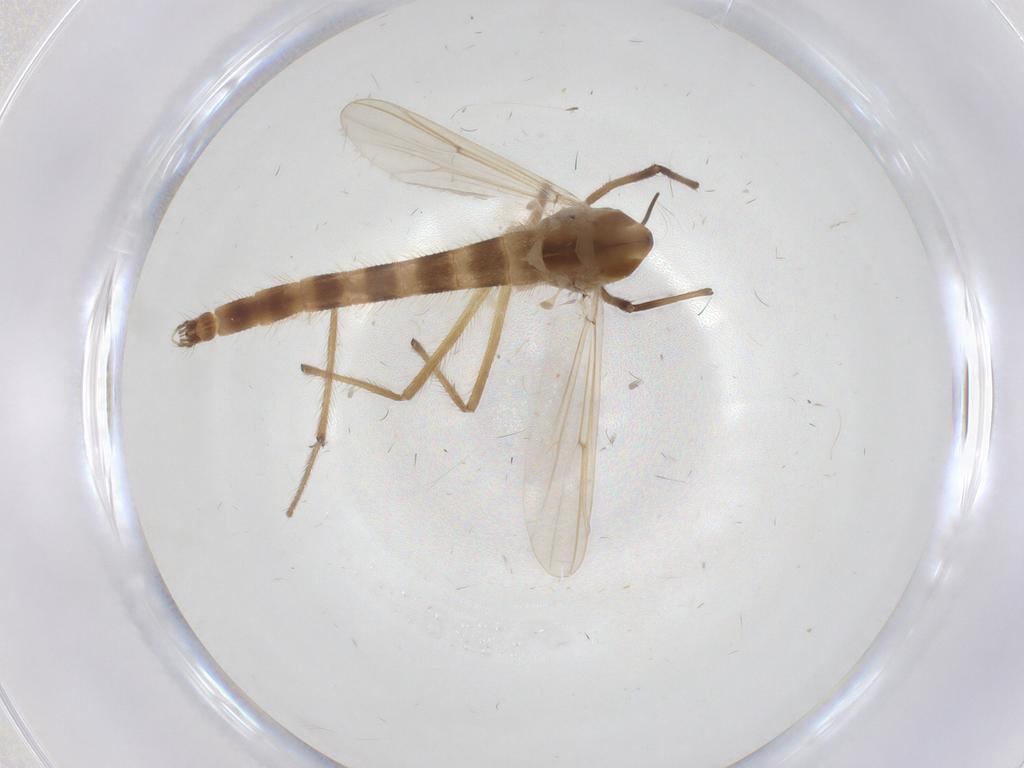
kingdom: Animalia
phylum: Arthropoda
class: Insecta
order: Diptera
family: Chironomidae
